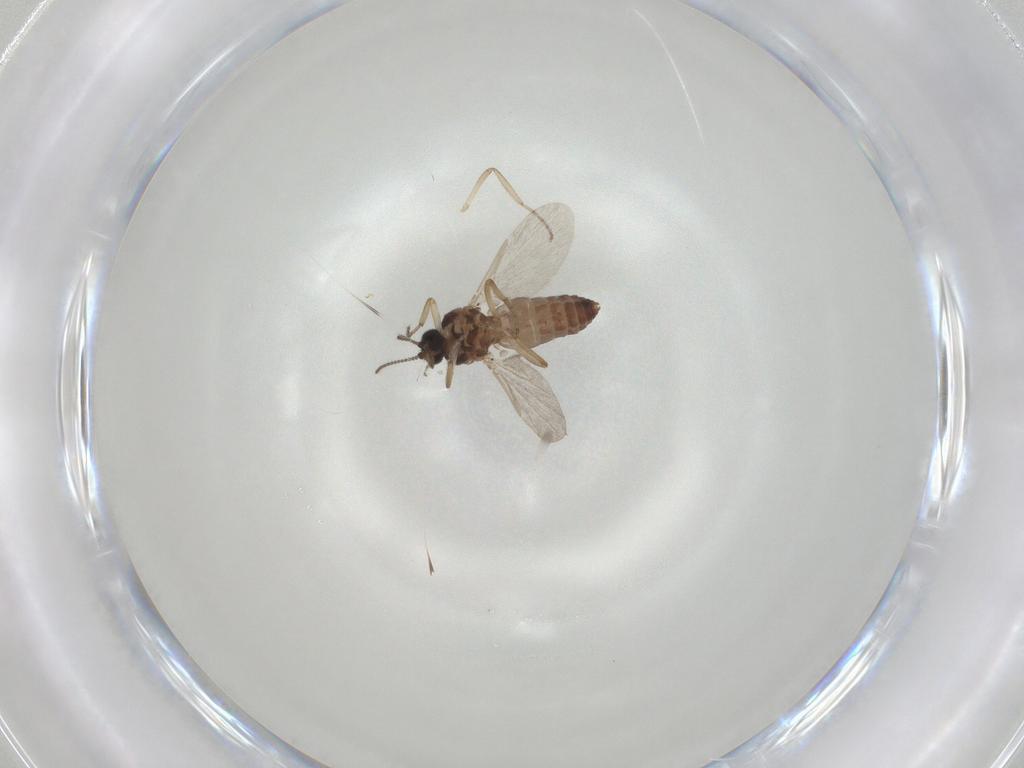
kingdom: Animalia
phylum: Arthropoda
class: Insecta
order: Diptera
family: Ceratopogonidae
